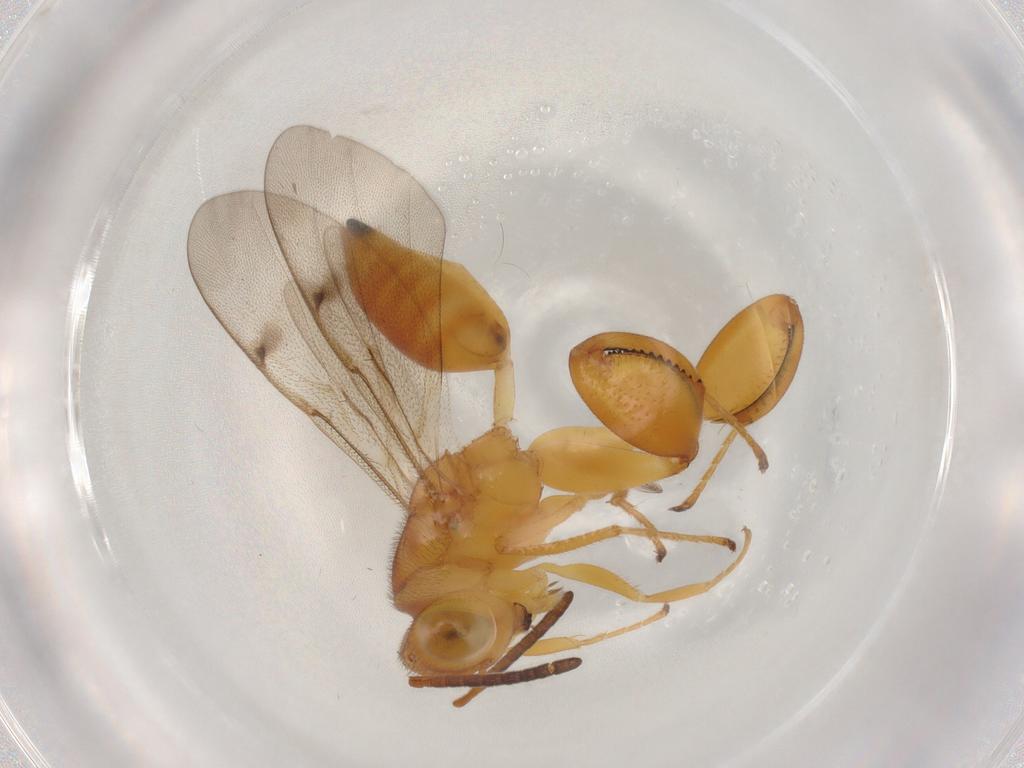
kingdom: Animalia
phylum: Arthropoda
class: Insecta
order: Hymenoptera
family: Chalcididae
